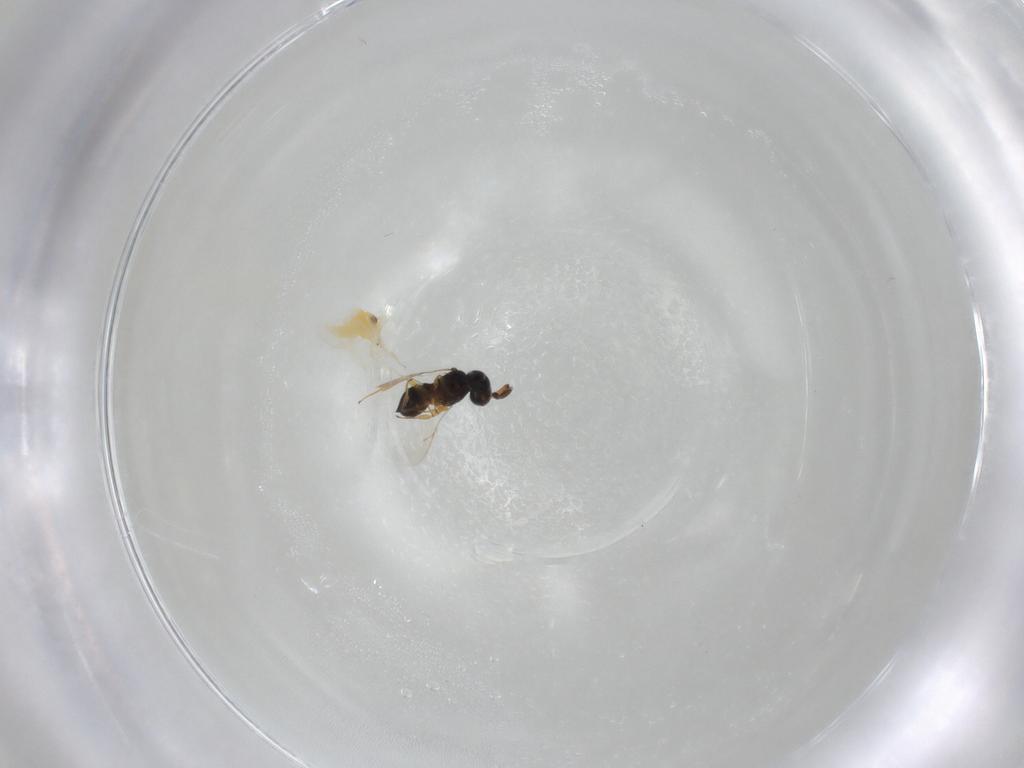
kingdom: Animalia
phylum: Arthropoda
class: Insecta
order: Hymenoptera
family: Scelionidae
